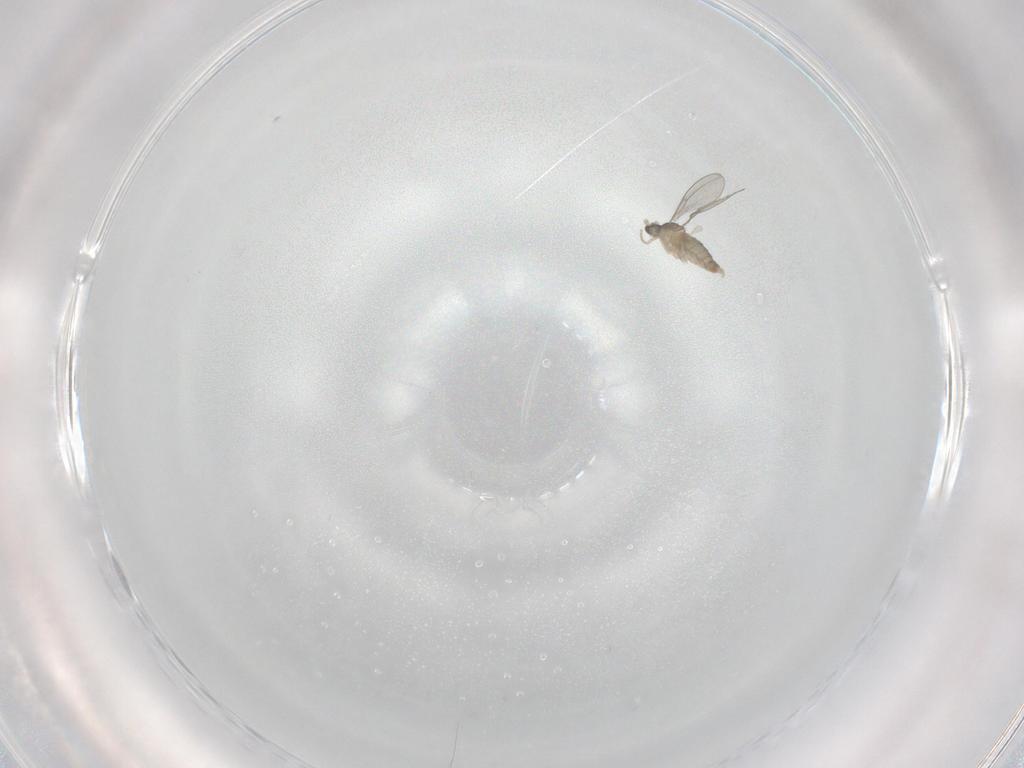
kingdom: Animalia
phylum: Arthropoda
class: Insecta
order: Diptera
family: Cecidomyiidae
